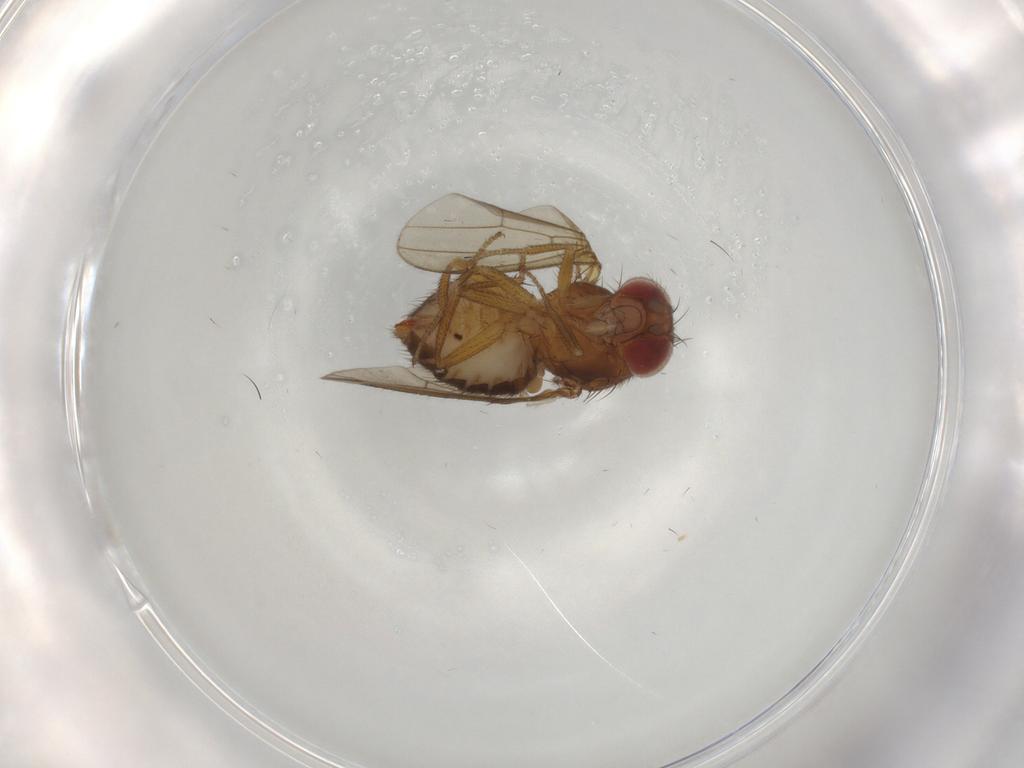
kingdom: Animalia
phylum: Arthropoda
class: Insecta
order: Diptera
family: Drosophilidae
